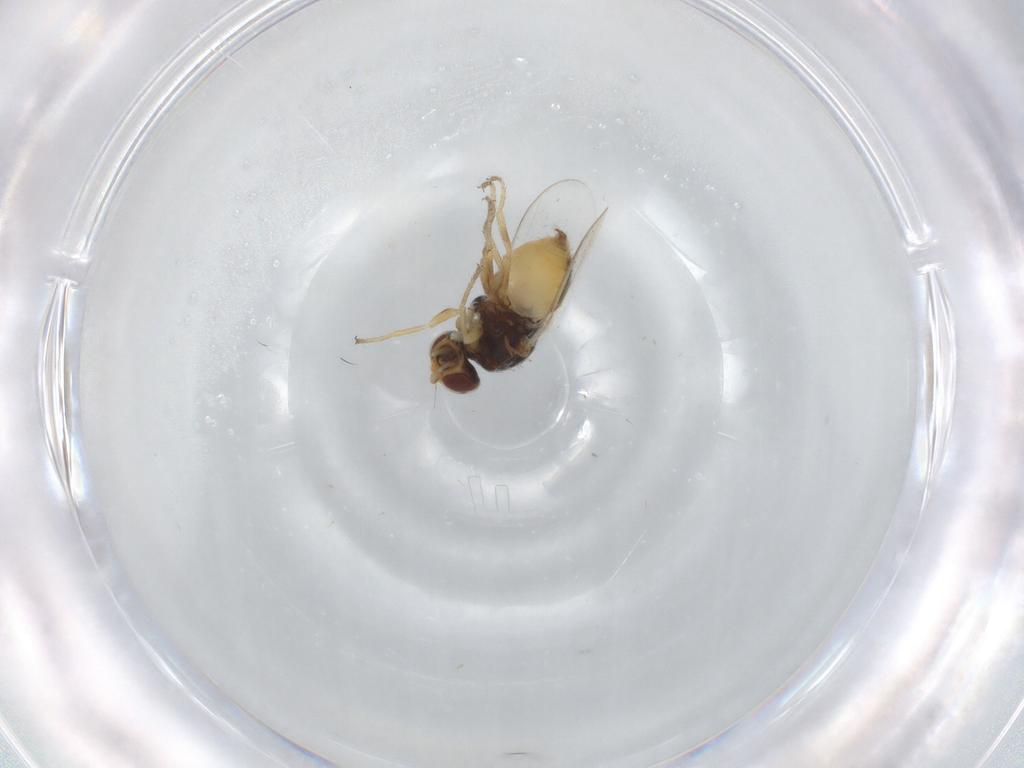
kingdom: Animalia
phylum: Arthropoda
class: Insecta
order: Diptera
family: Chloropidae
